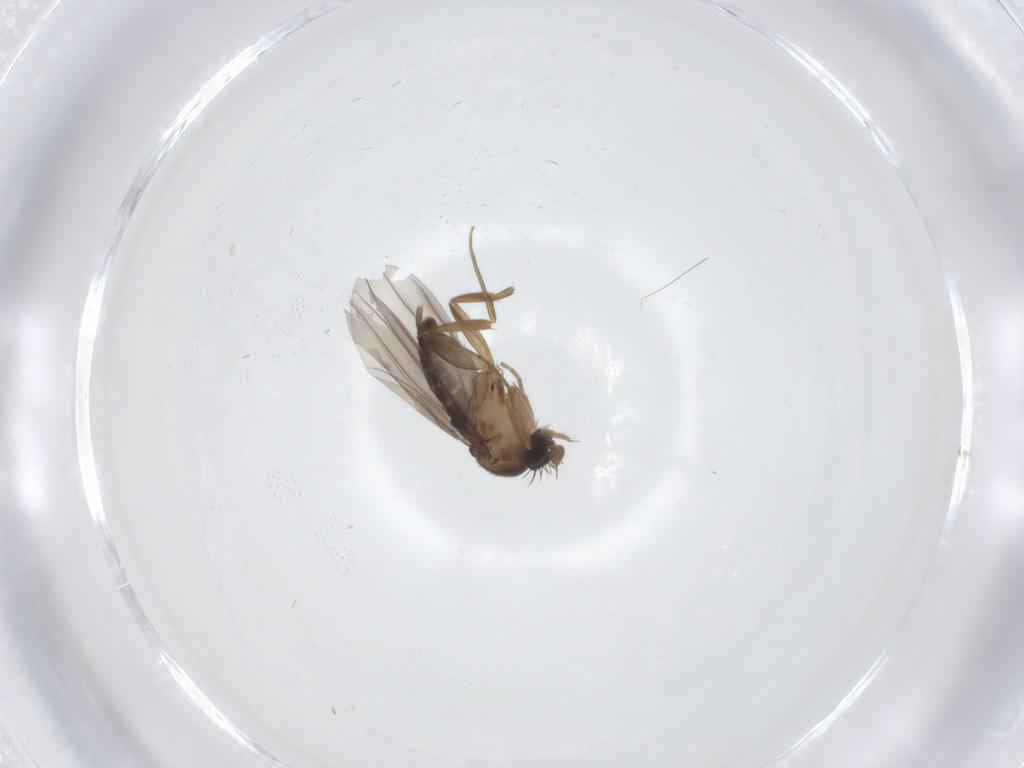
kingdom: Animalia
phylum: Arthropoda
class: Insecta
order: Diptera
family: Phoridae
